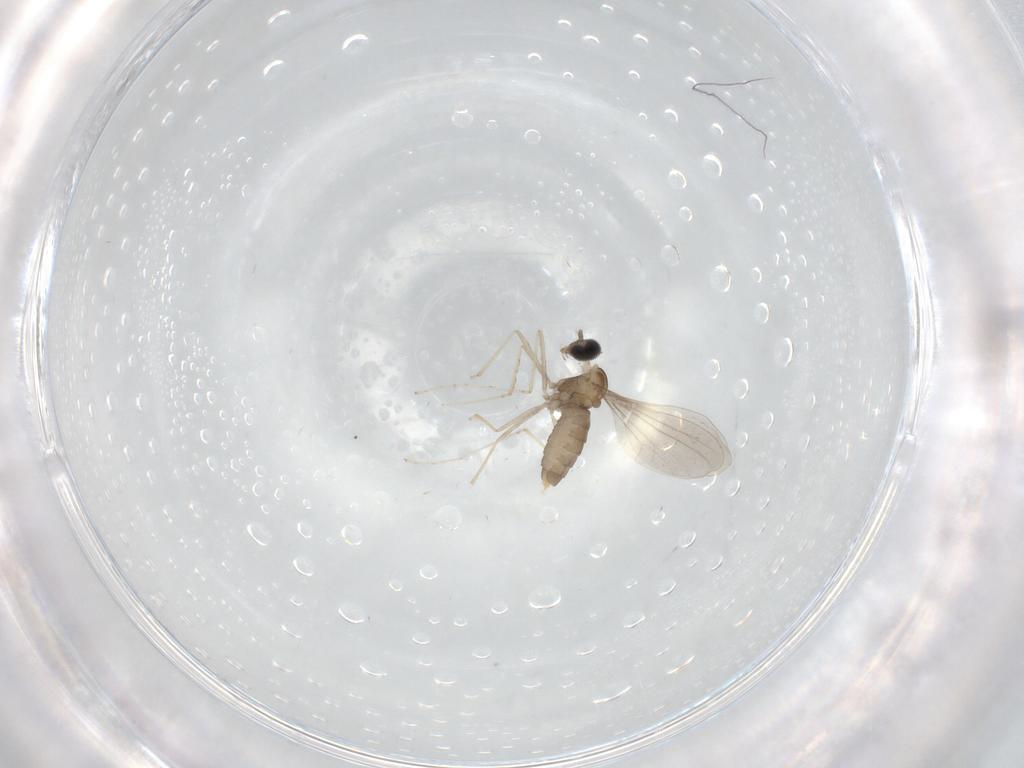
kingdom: Animalia
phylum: Arthropoda
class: Insecta
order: Diptera
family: Cecidomyiidae
